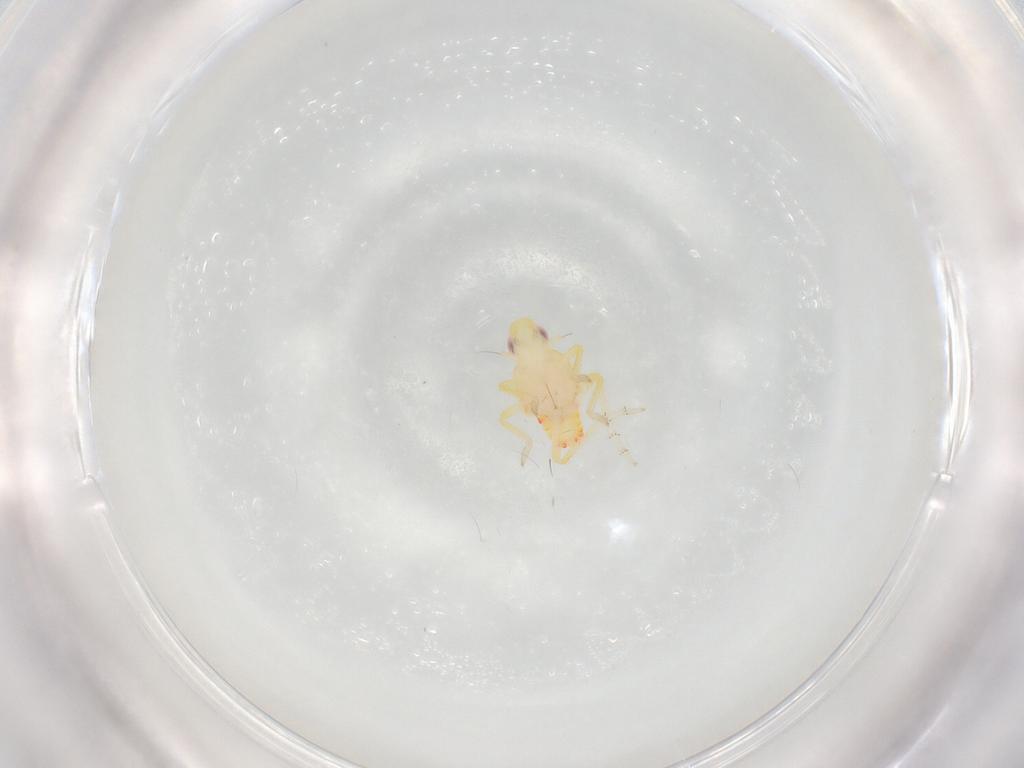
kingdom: Animalia
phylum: Arthropoda
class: Insecta
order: Hemiptera
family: Tropiduchidae
